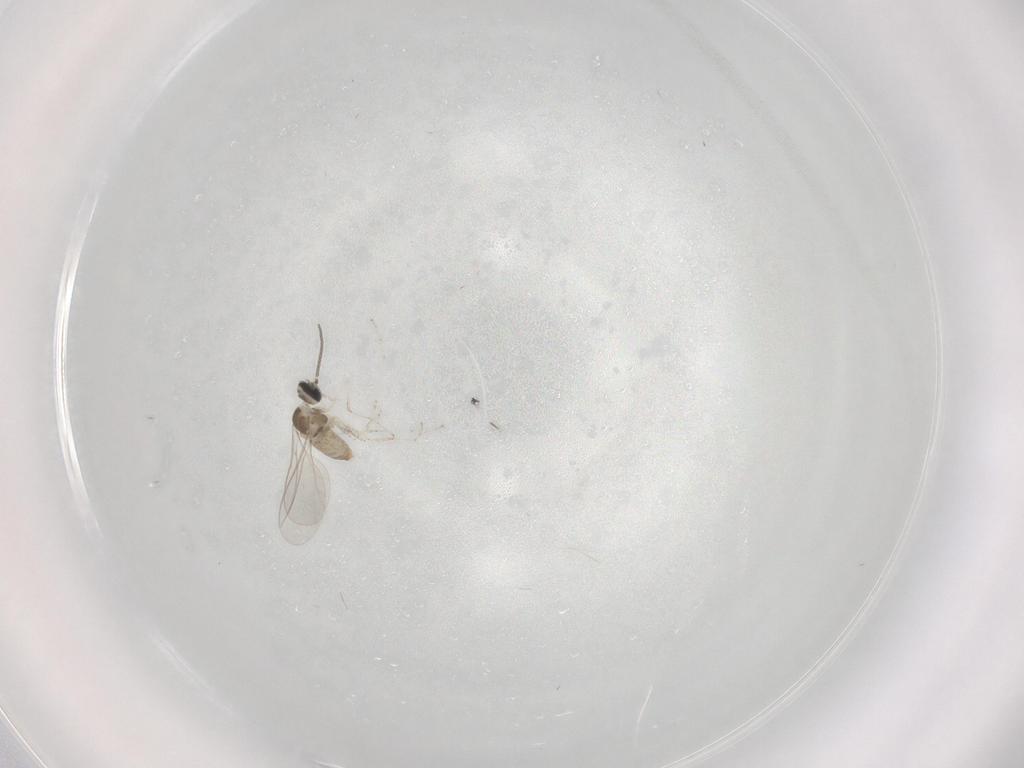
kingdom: Animalia
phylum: Arthropoda
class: Insecta
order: Diptera
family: Cecidomyiidae
